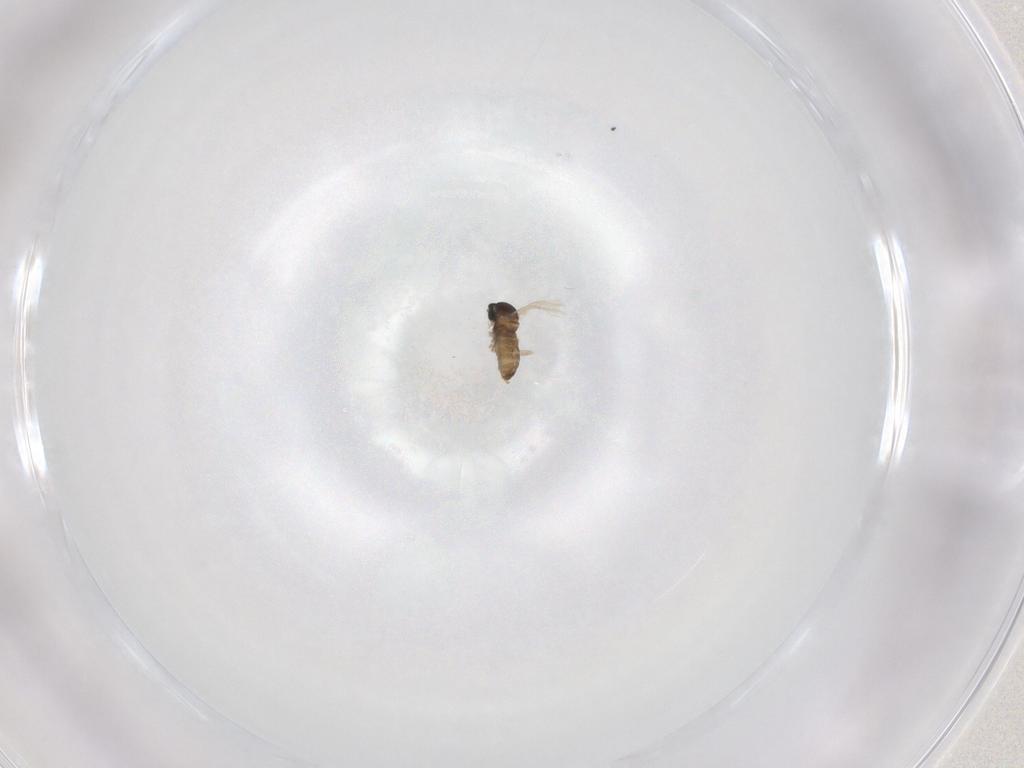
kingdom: Animalia
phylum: Arthropoda
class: Insecta
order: Diptera
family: Cecidomyiidae
